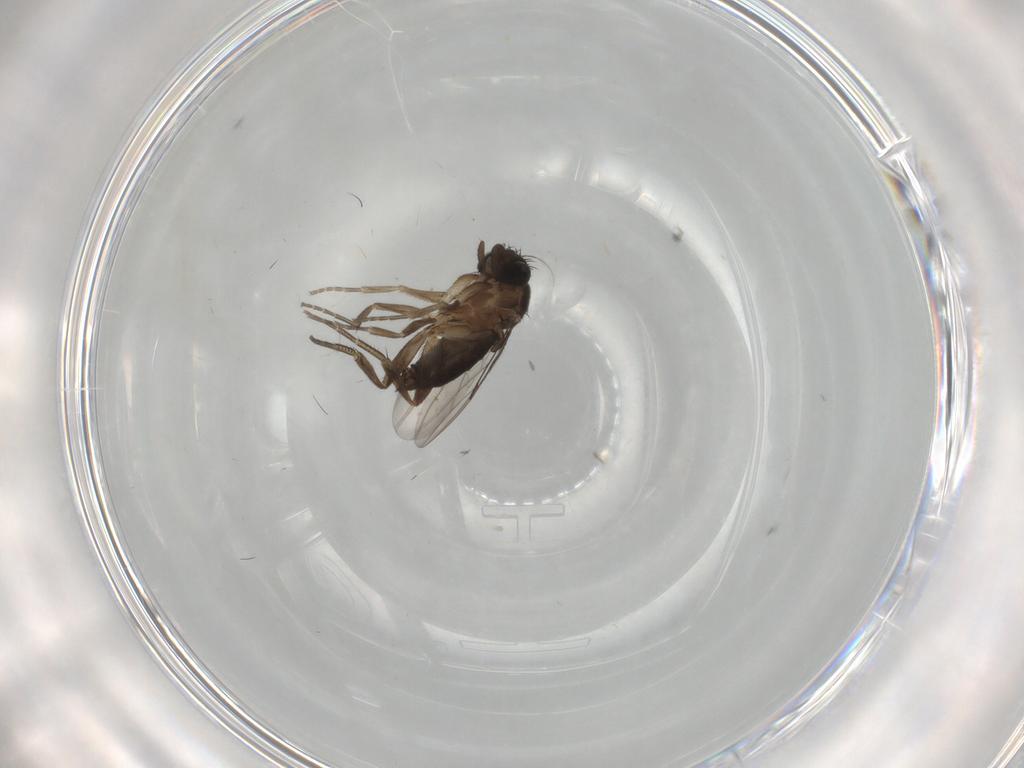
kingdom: Animalia
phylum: Arthropoda
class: Insecta
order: Diptera
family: Phoridae
